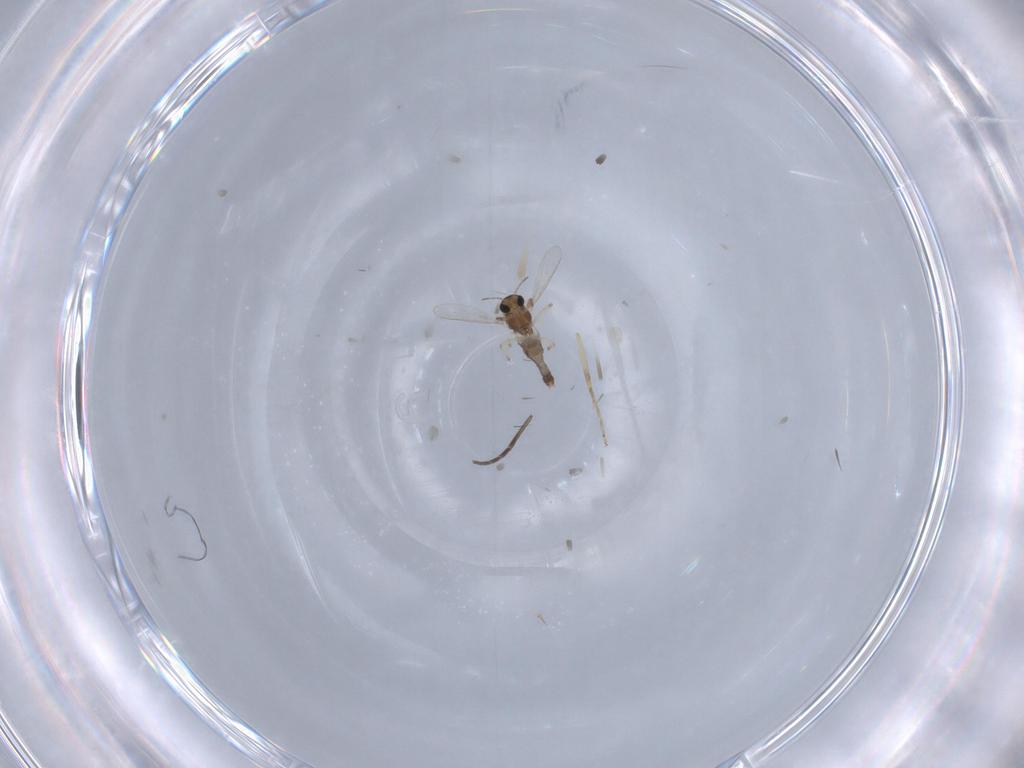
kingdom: Animalia
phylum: Arthropoda
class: Insecta
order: Diptera
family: Chironomidae
